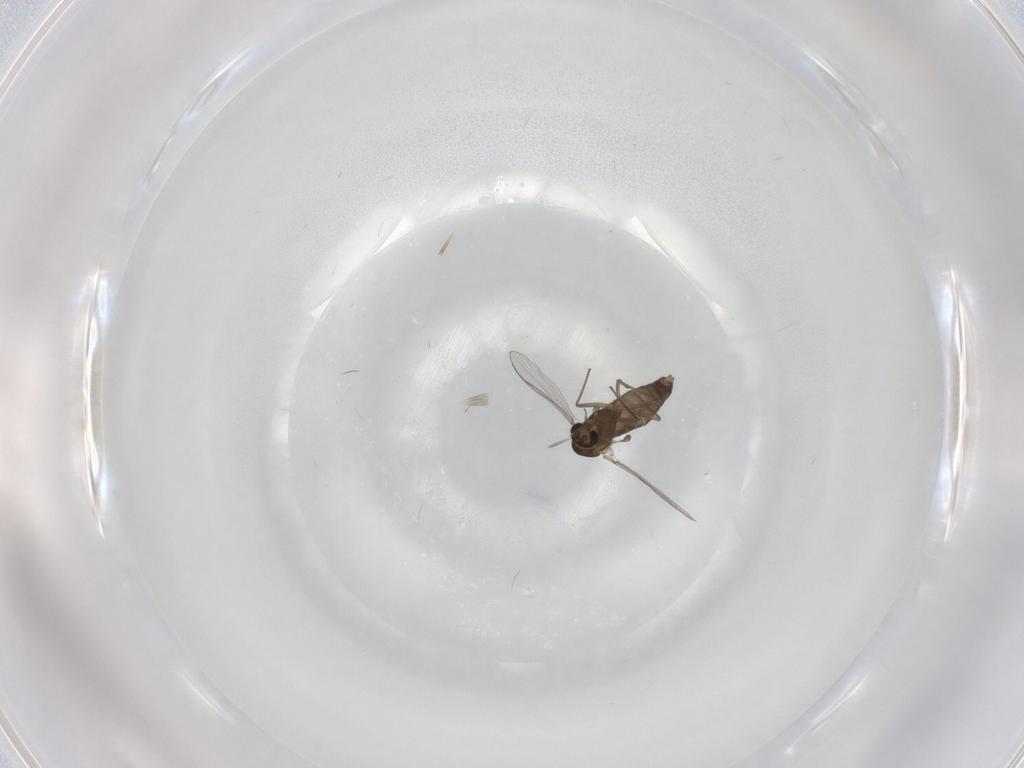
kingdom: Animalia
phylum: Arthropoda
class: Insecta
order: Diptera
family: Chironomidae
